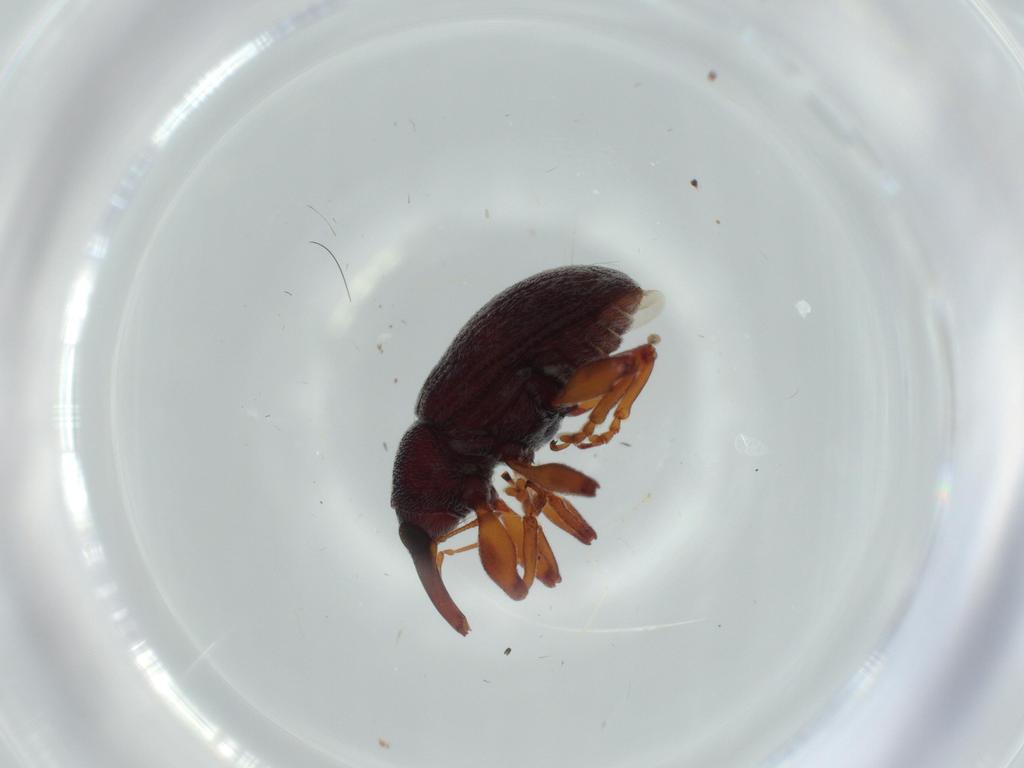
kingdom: Animalia
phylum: Arthropoda
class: Insecta
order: Coleoptera
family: Curculionidae
